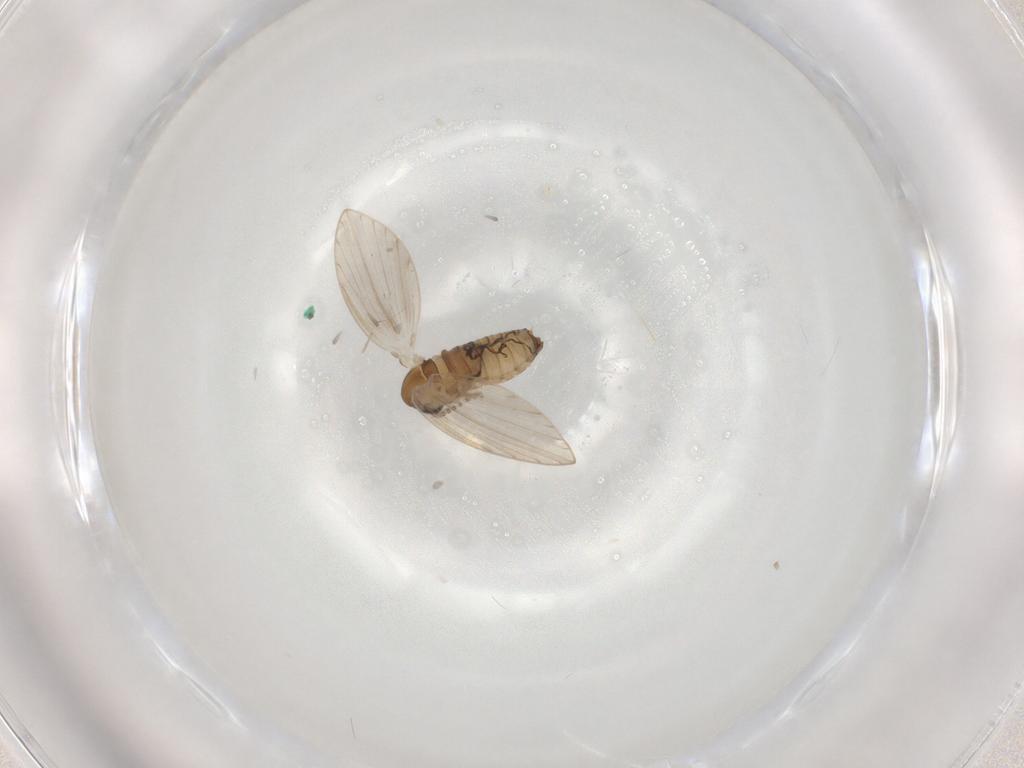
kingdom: Animalia
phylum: Arthropoda
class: Insecta
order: Diptera
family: Psychodidae
